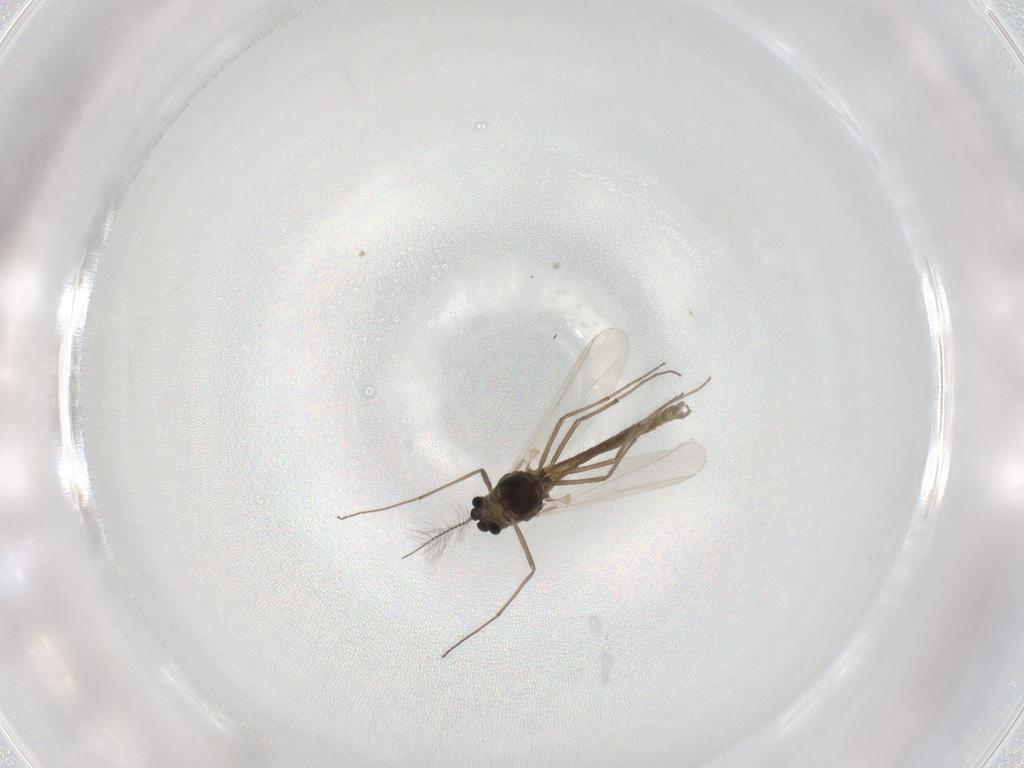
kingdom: Animalia
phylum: Arthropoda
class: Insecta
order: Diptera
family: Chironomidae
